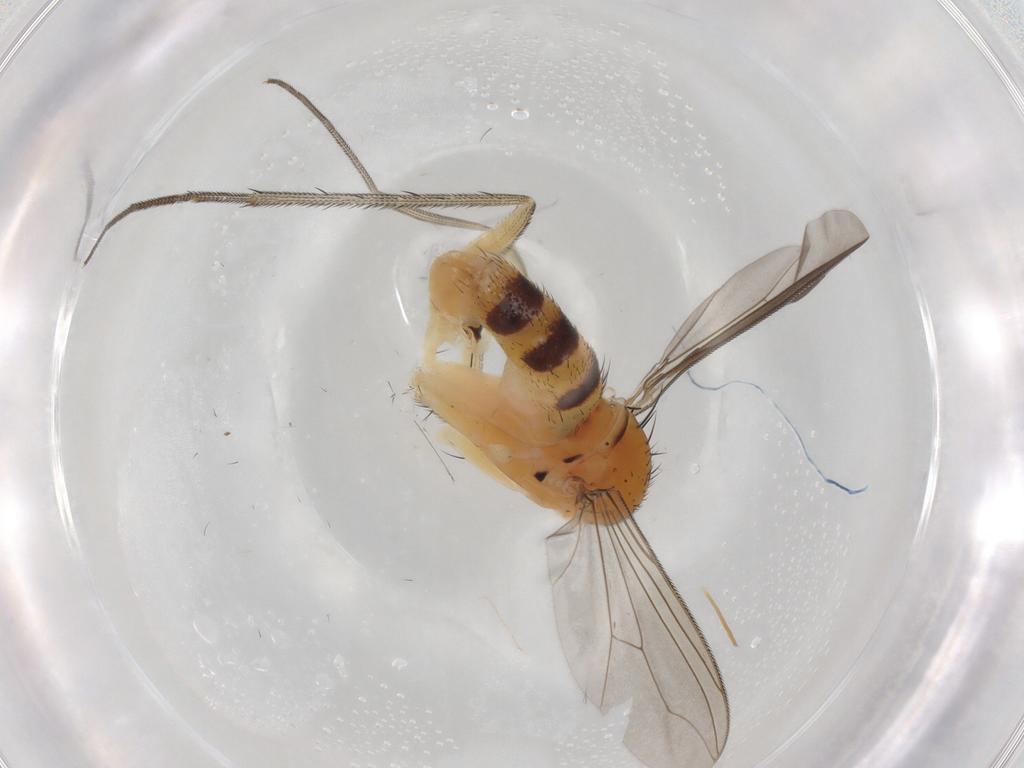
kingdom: Animalia
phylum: Arthropoda
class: Insecta
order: Diptera
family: Dolichopodidae
